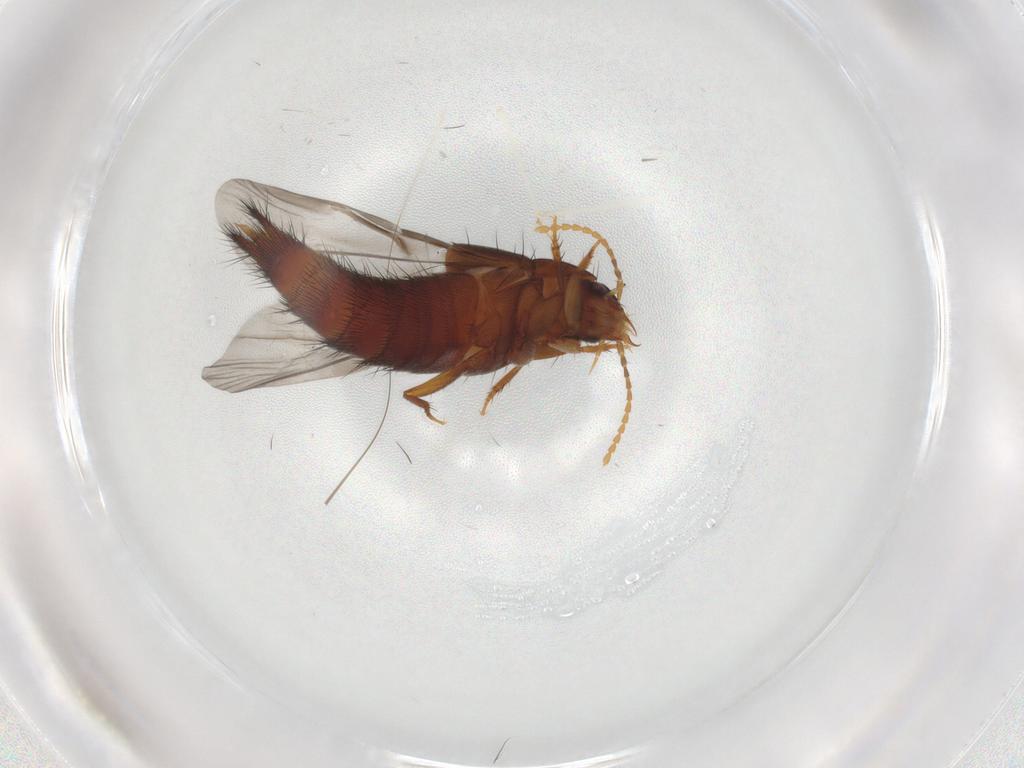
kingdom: Animalia
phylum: Arthropoda
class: Insecta
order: Coleoptera
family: Staphylinidae
